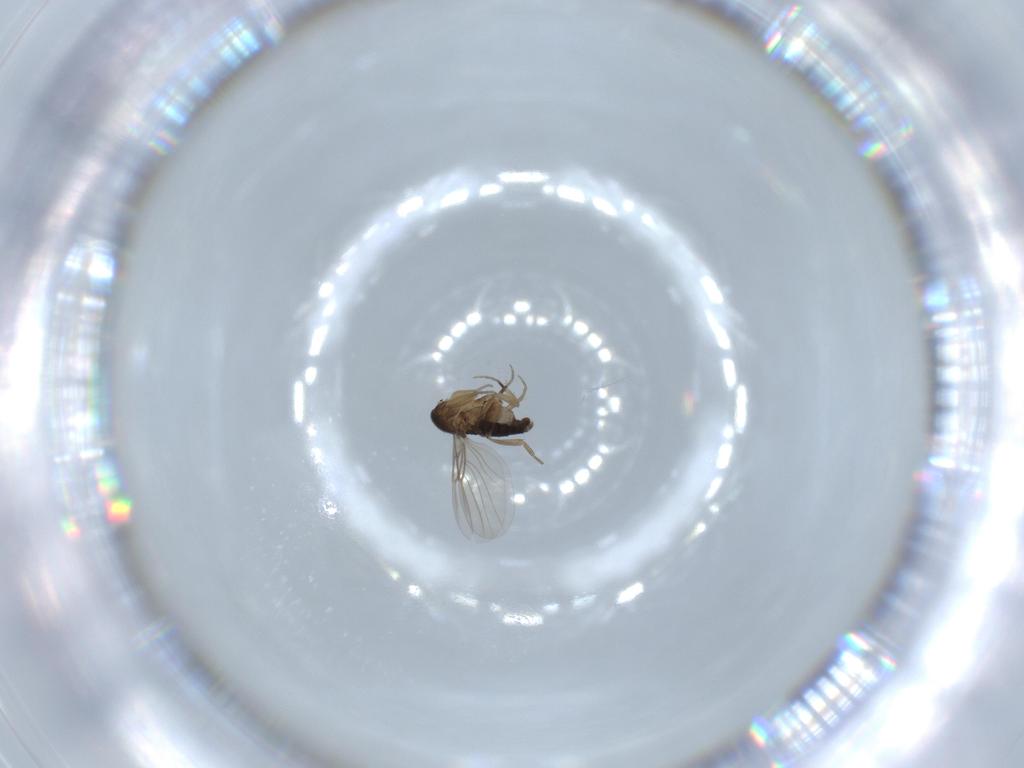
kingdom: Animalia
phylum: Arthropoda
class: Insecta
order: Diptera
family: Phoridae
